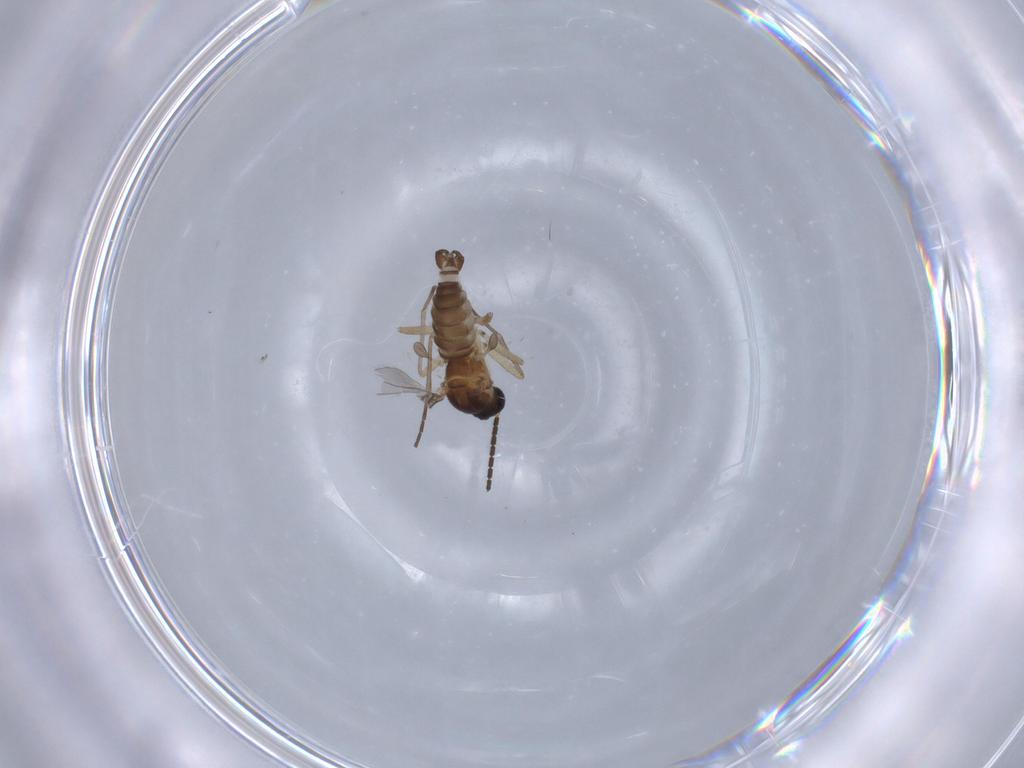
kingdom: Animalia
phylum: Arthropoda
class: Insecta
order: Diptera
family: Sciaridae
